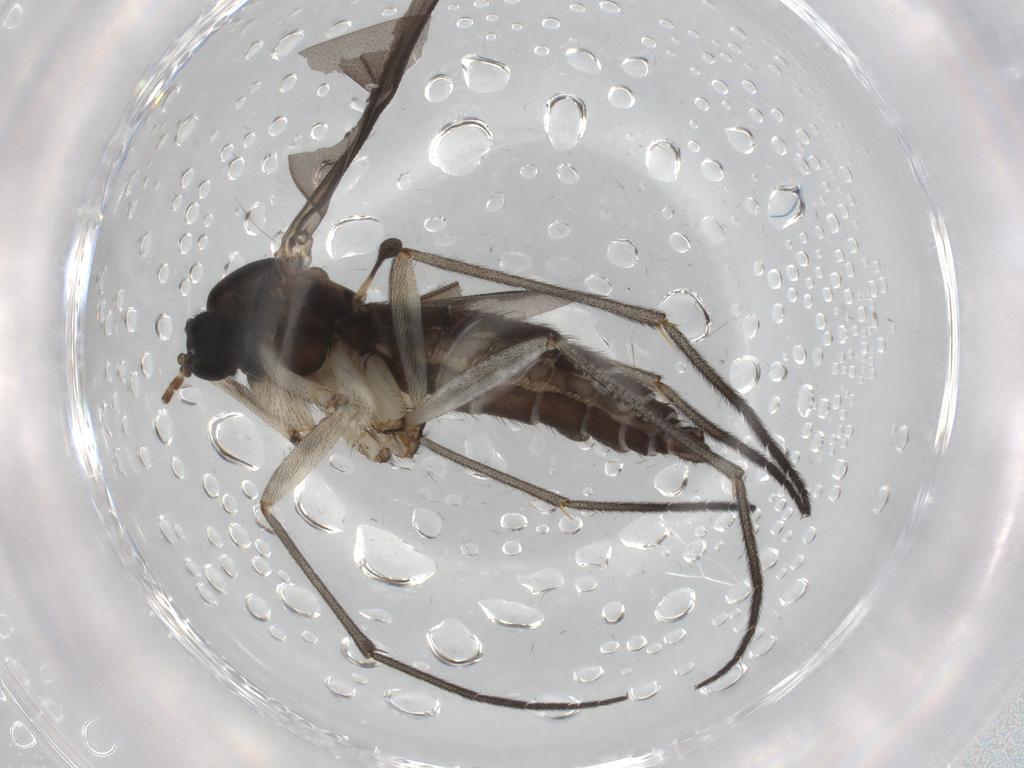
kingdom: Animalia
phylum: Arthropoda
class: Insecta
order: Diptera
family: Sciaridae
